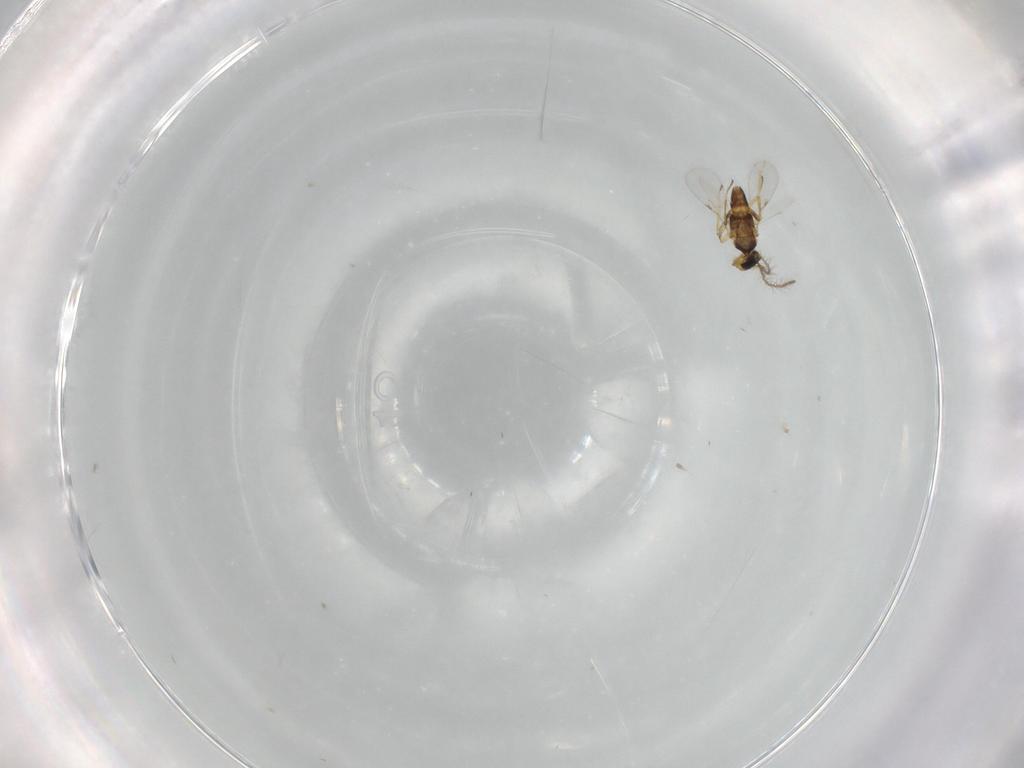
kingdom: Animalia
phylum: Arthropoda
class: Insecta
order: Hymenoptera
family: Encyrtidae
